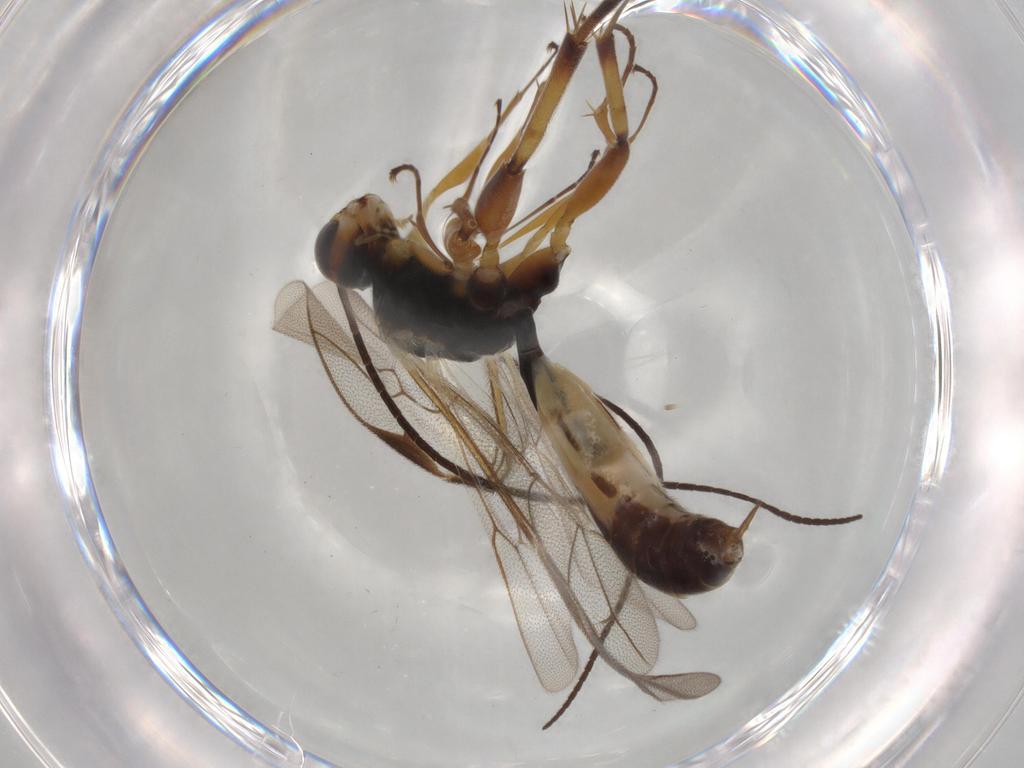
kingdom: Animalia
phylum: Arthropoda
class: Insecta
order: Hymenoptera
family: Ichneumonidae
